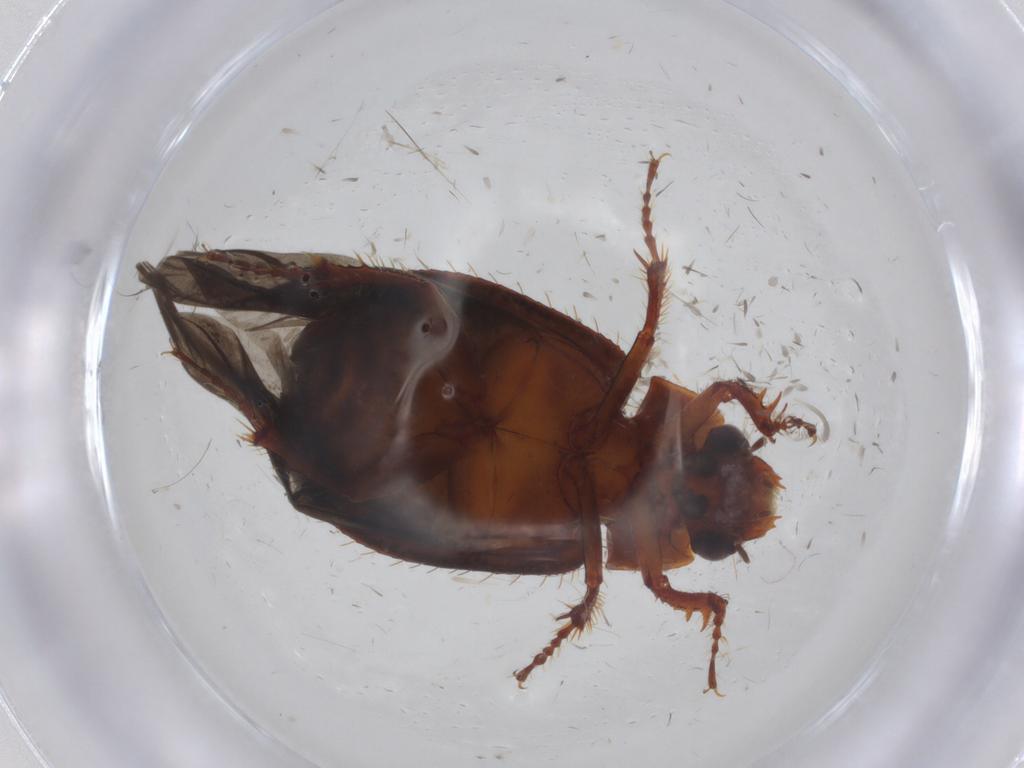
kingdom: Animalia
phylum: Arthropoda
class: Insecta
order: Coleoptera
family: Hybosoridae
